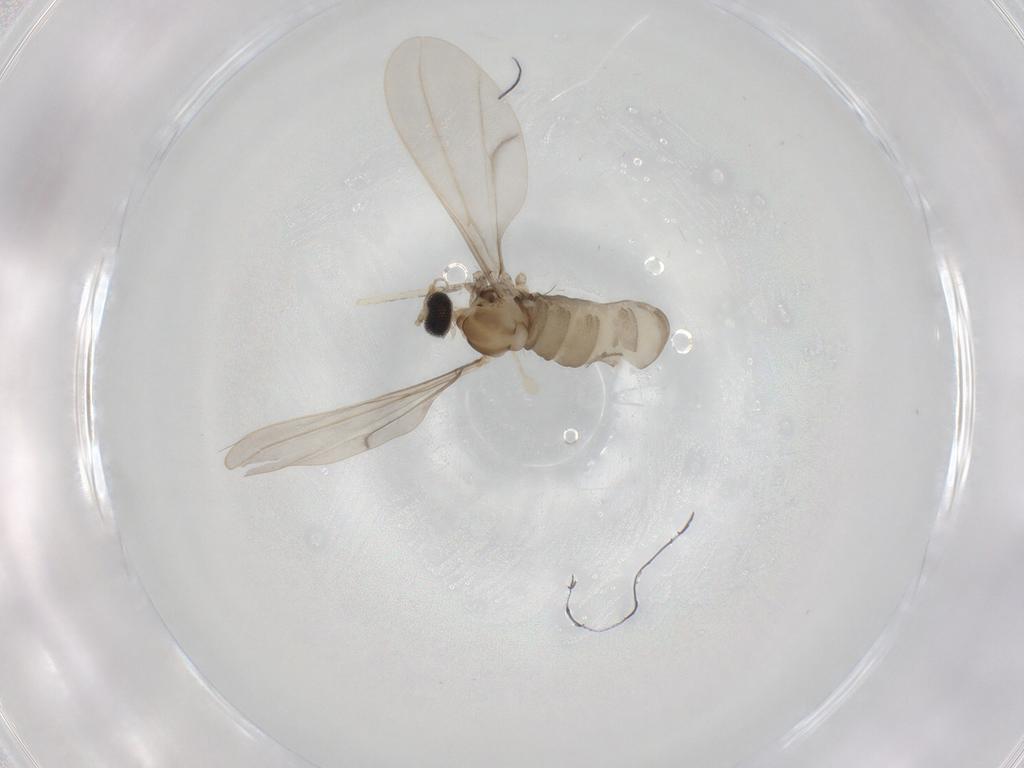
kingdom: Animalia
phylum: Arthropoda
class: Insecta
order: Diptera
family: Cecidomyiidae
